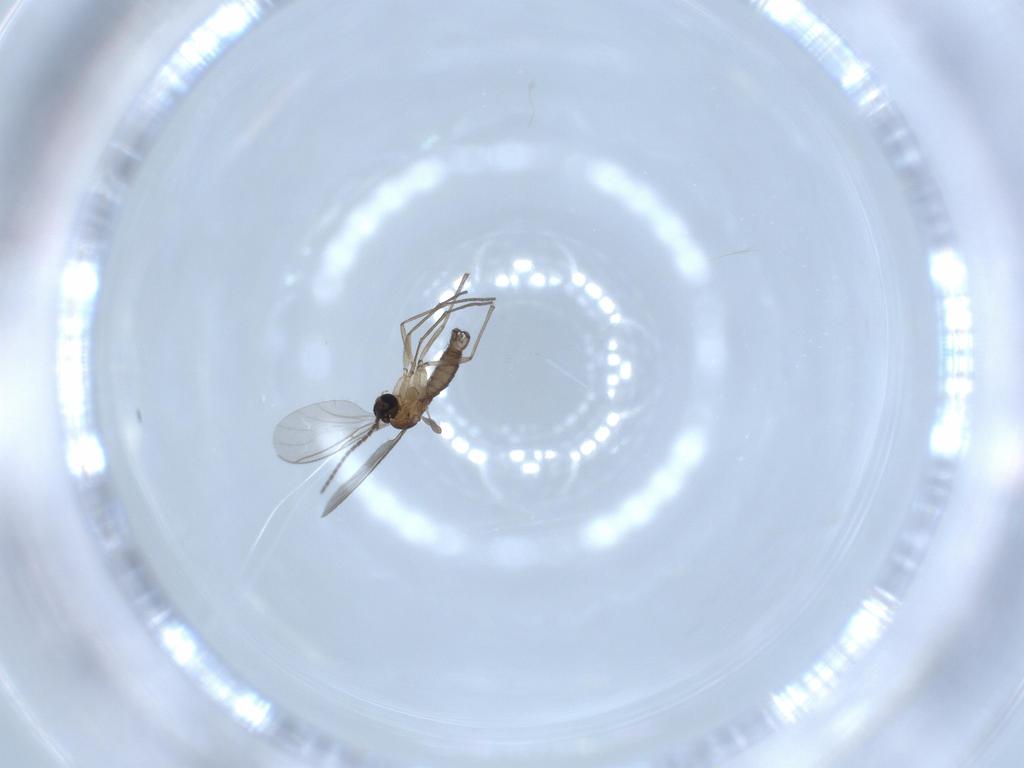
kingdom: Animalia
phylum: Arthropoda
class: Insecta
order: Diptera
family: Sciaridae
